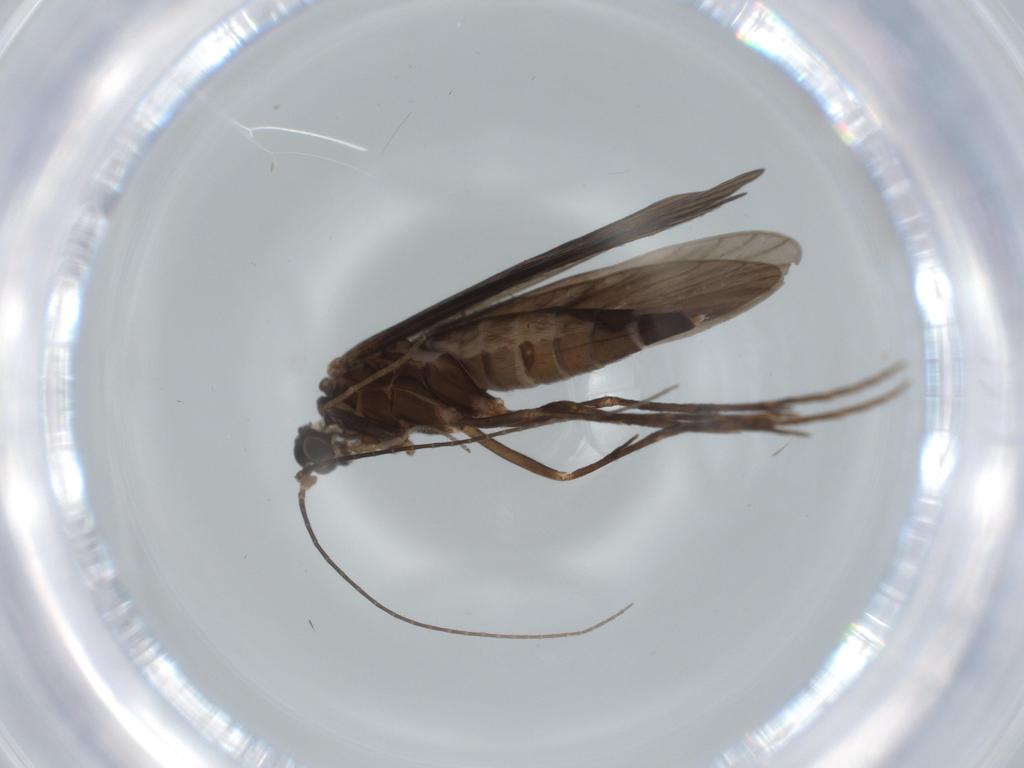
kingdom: Animalia
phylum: Arthropoda
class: Insecta
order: Trichoptera
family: Xiphocentronidae
